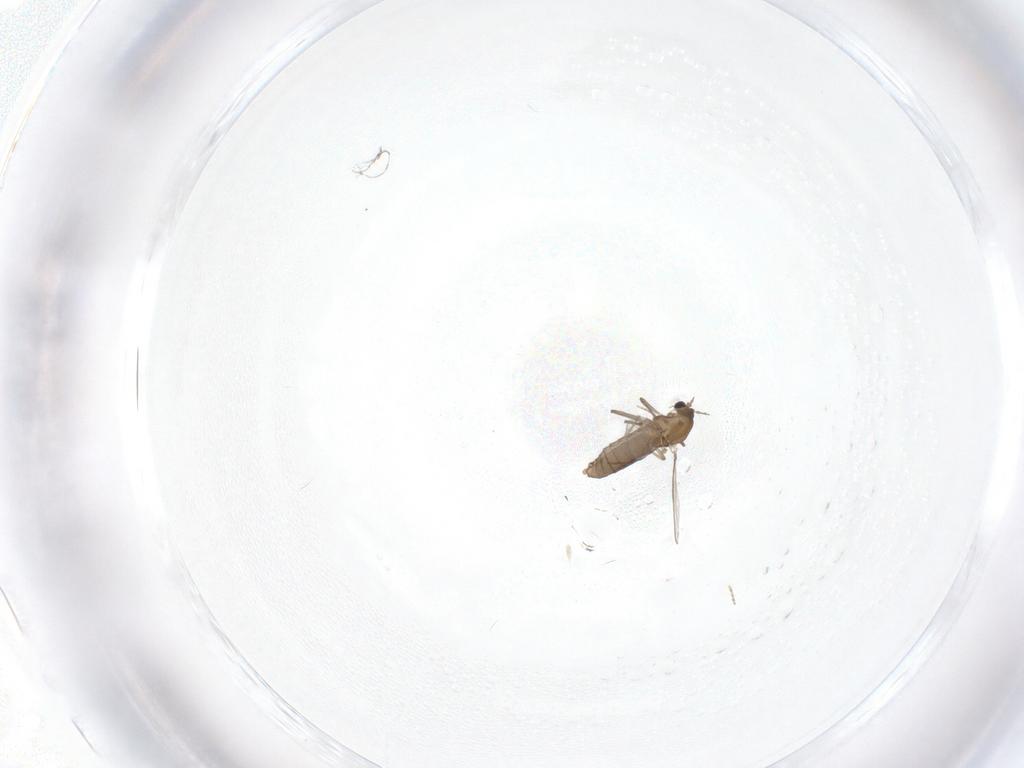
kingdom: Animalia
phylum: Arthropoda
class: Insecta
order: Diptera
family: Chironomidae
